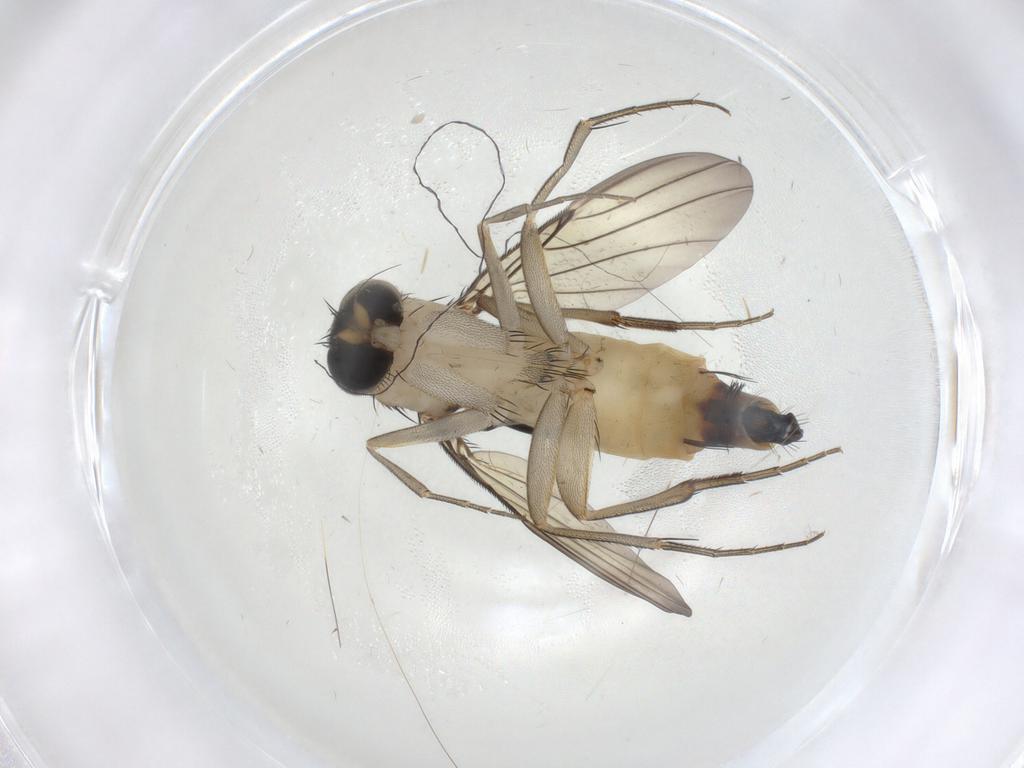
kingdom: Animalia
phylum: Arthropoda
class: Insecta
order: Diptera
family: Phoridae
